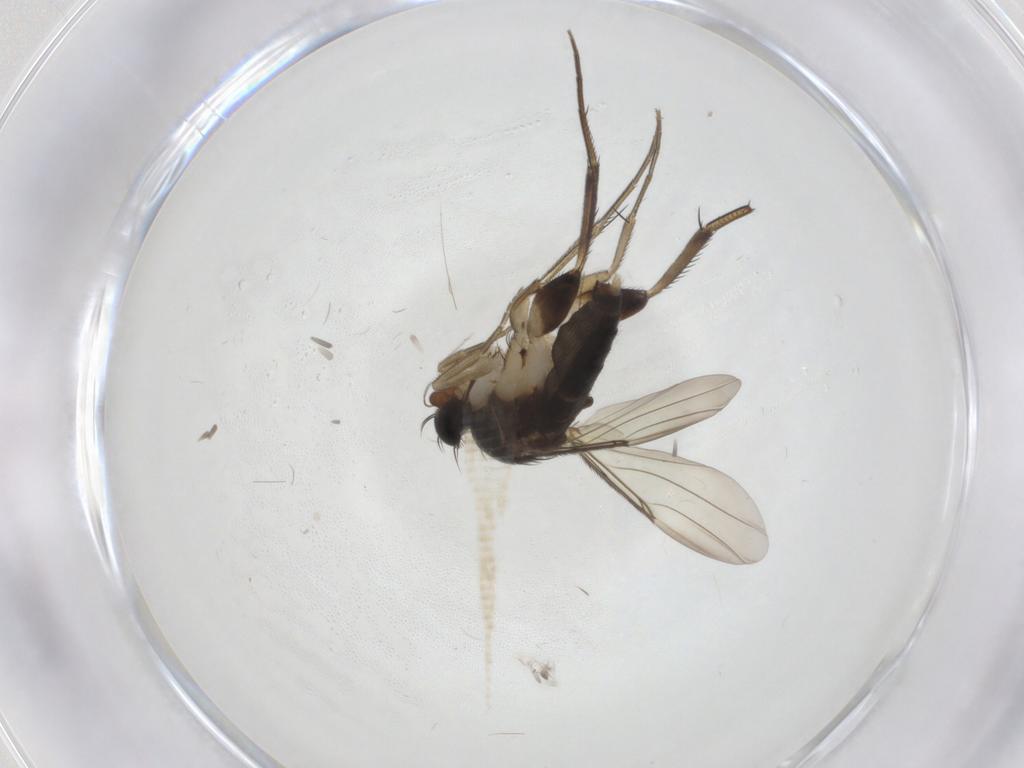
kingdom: Animalia
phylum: Arthropoda
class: Insecta
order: Diptera
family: Phoridae
